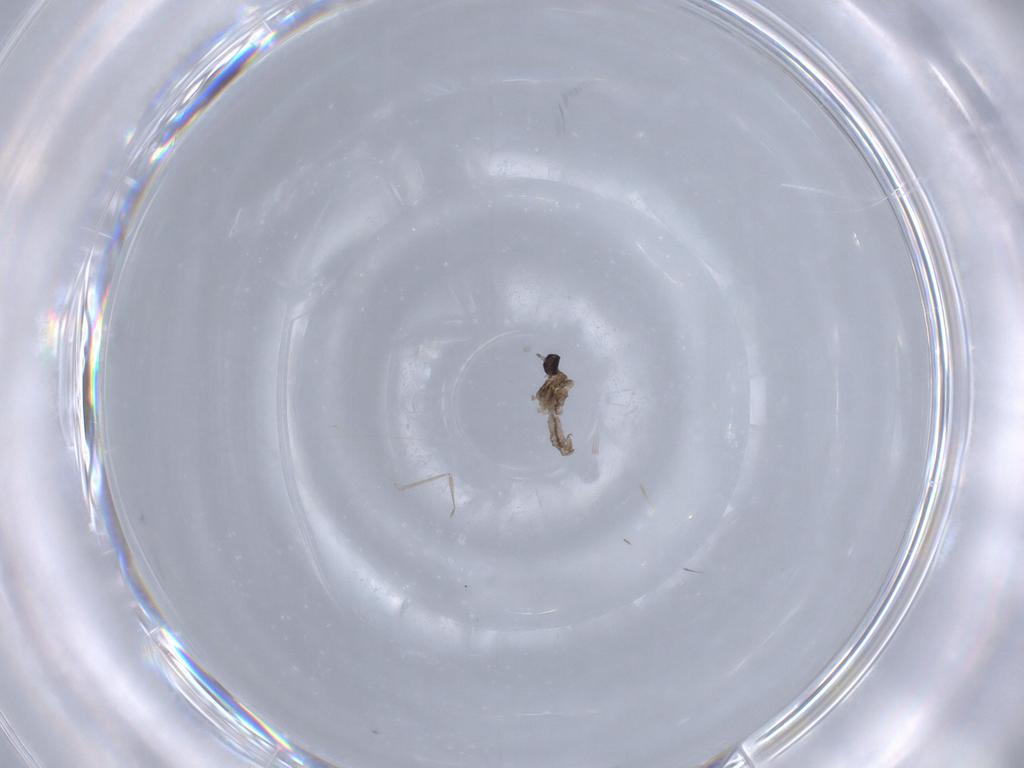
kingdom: Animalia
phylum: Arthropoda
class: Insecta
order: Diptera
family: Cecidomyiidae
